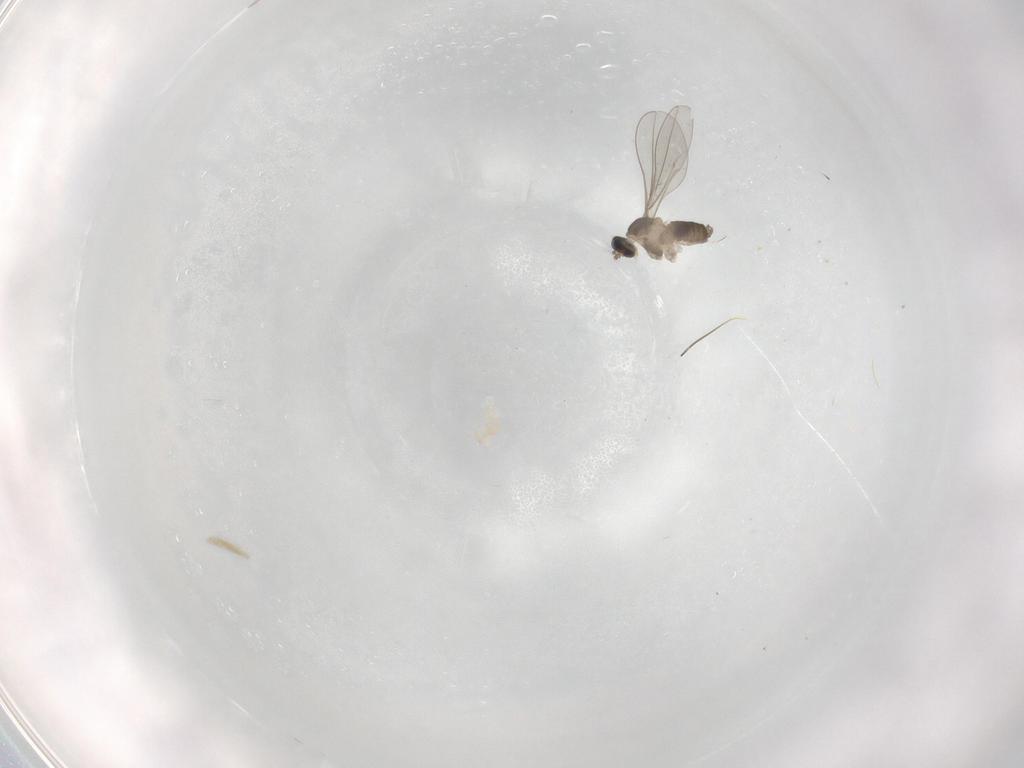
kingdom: Animalia
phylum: Arthropoda
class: Insecta
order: Diptera
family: Cecidomyiidae
